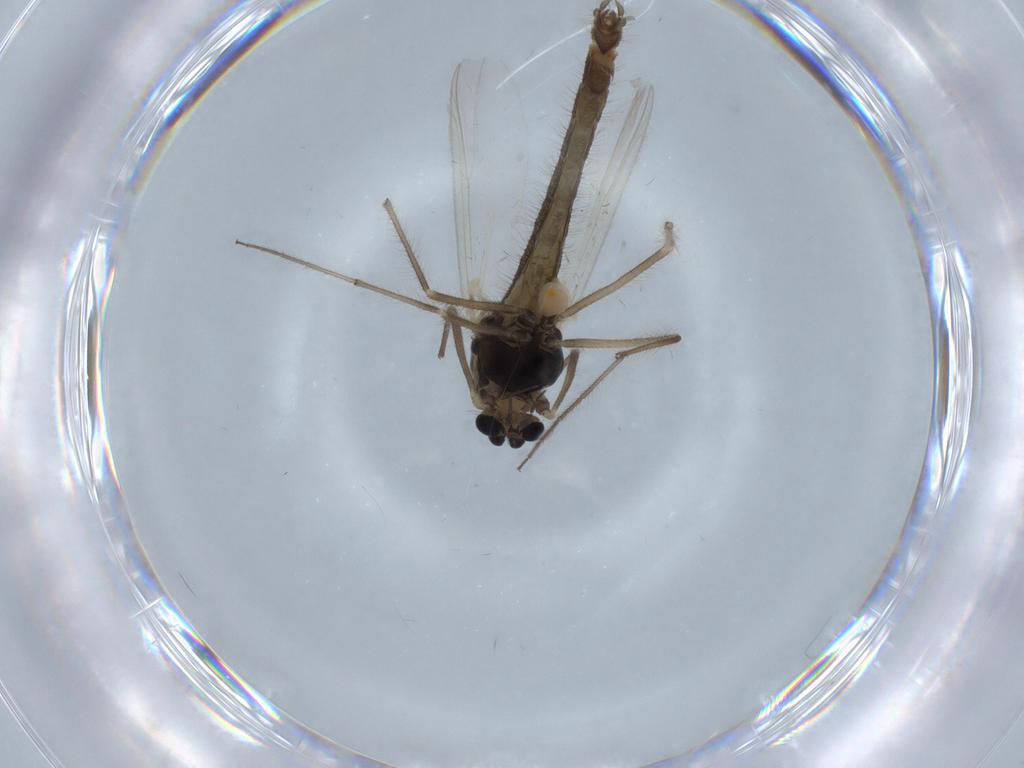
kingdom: Animalia
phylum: Arthropoda
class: Insecta
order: Diptera
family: Chironomidae
